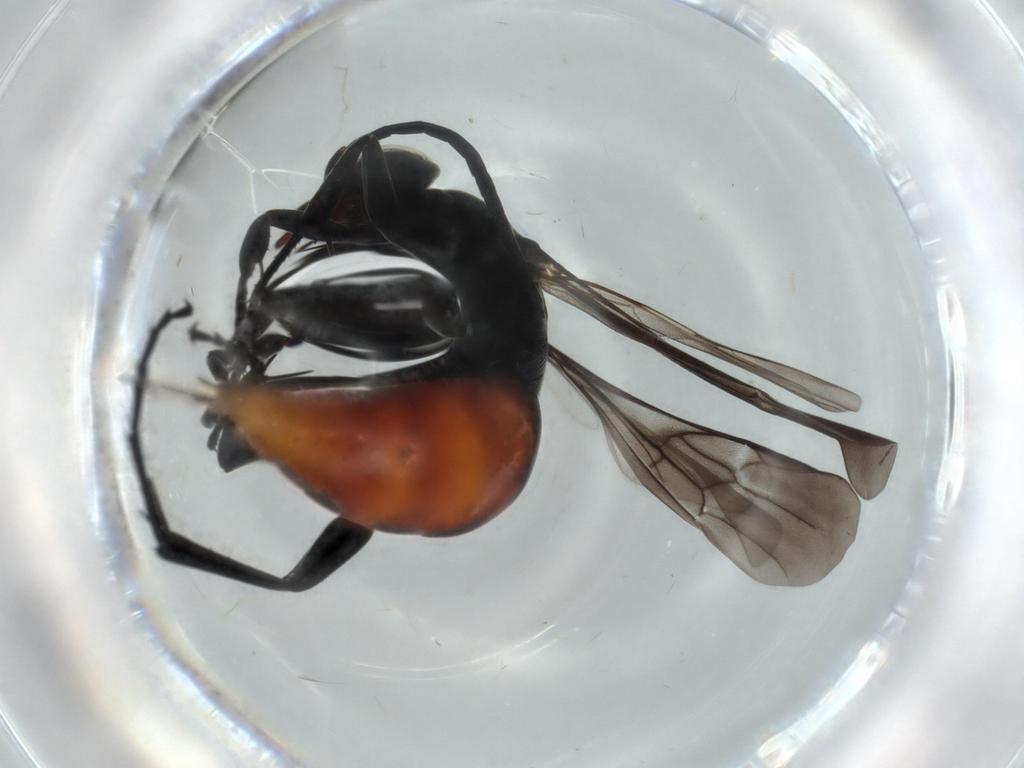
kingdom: Animalia
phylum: Arthropoda
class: Insecta
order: Hymenoptera
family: Pompilidae
